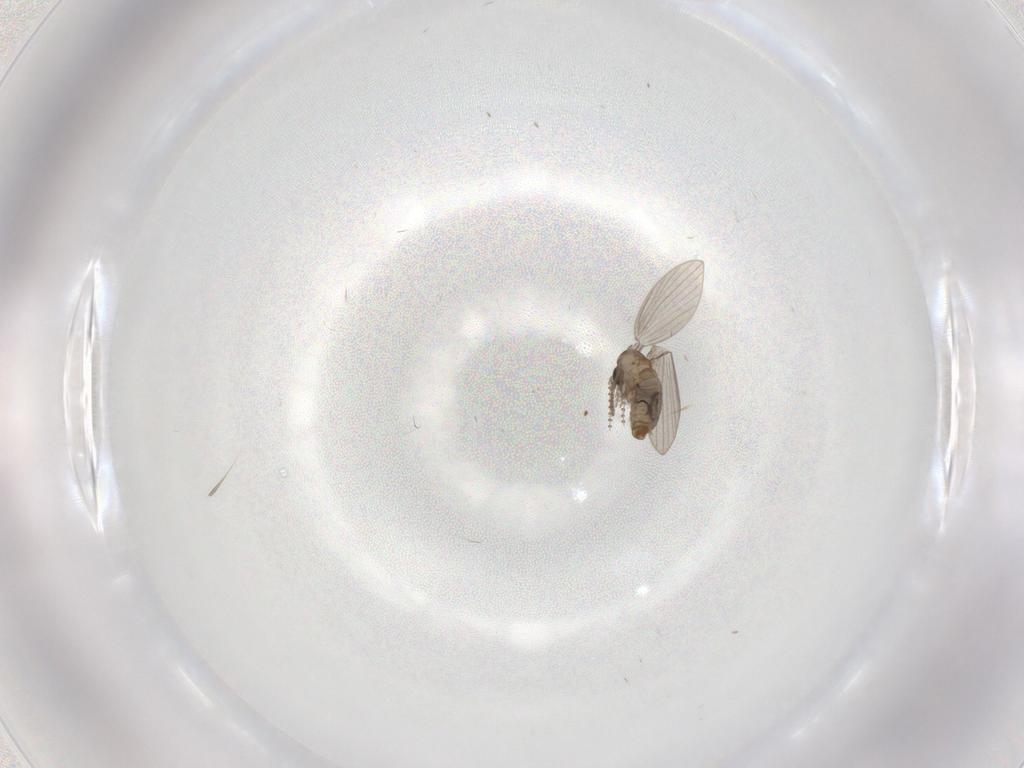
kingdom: Animalia
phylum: Arthropoda
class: Insecta
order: Diptera
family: Psychodidae
